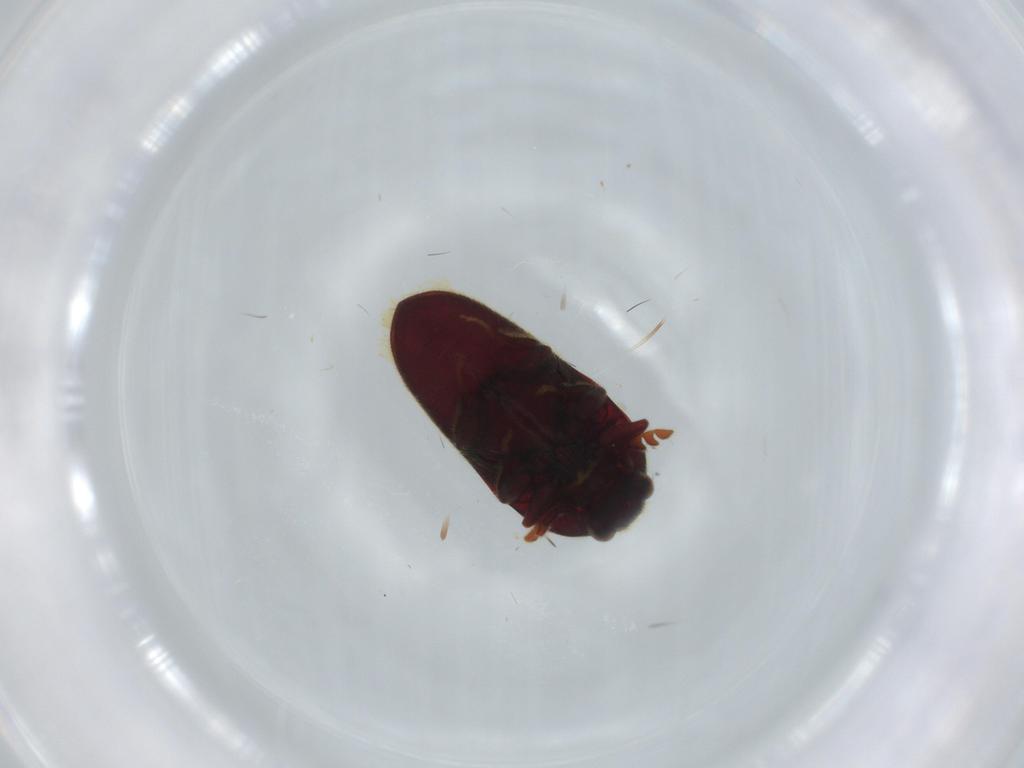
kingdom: Animalia
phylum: Arthropoda
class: Insecta
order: Coleoptera
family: Throscidae
